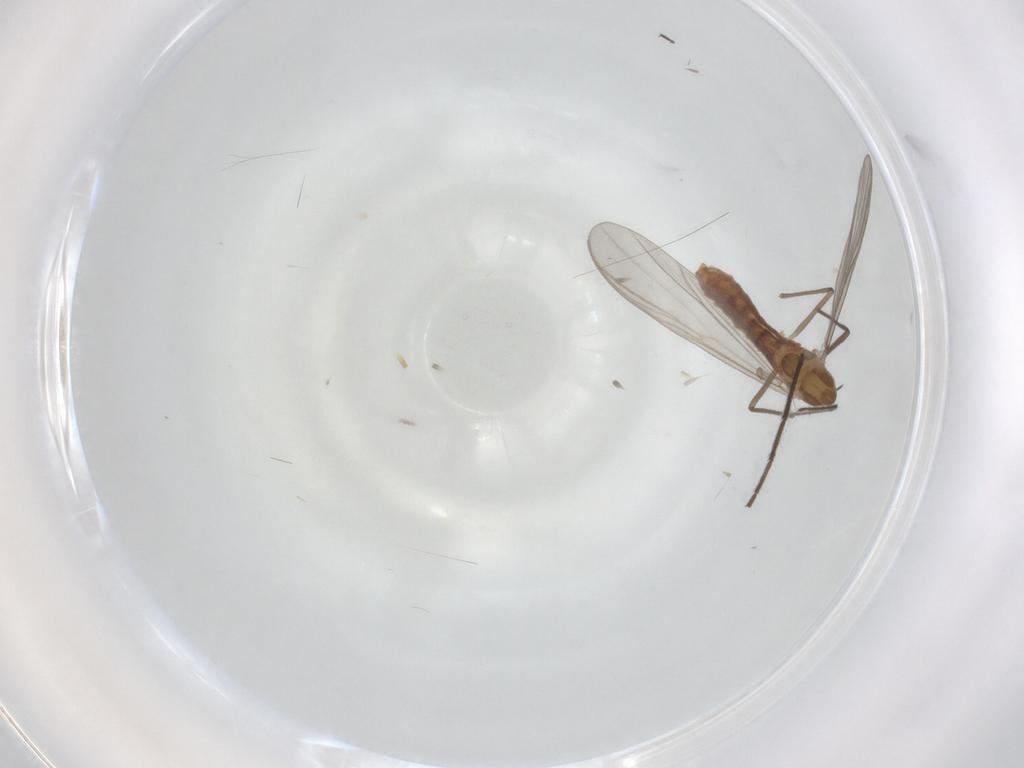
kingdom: Animalia
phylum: Arthropoda
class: Insecta
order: Diptera
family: Chironomidae
